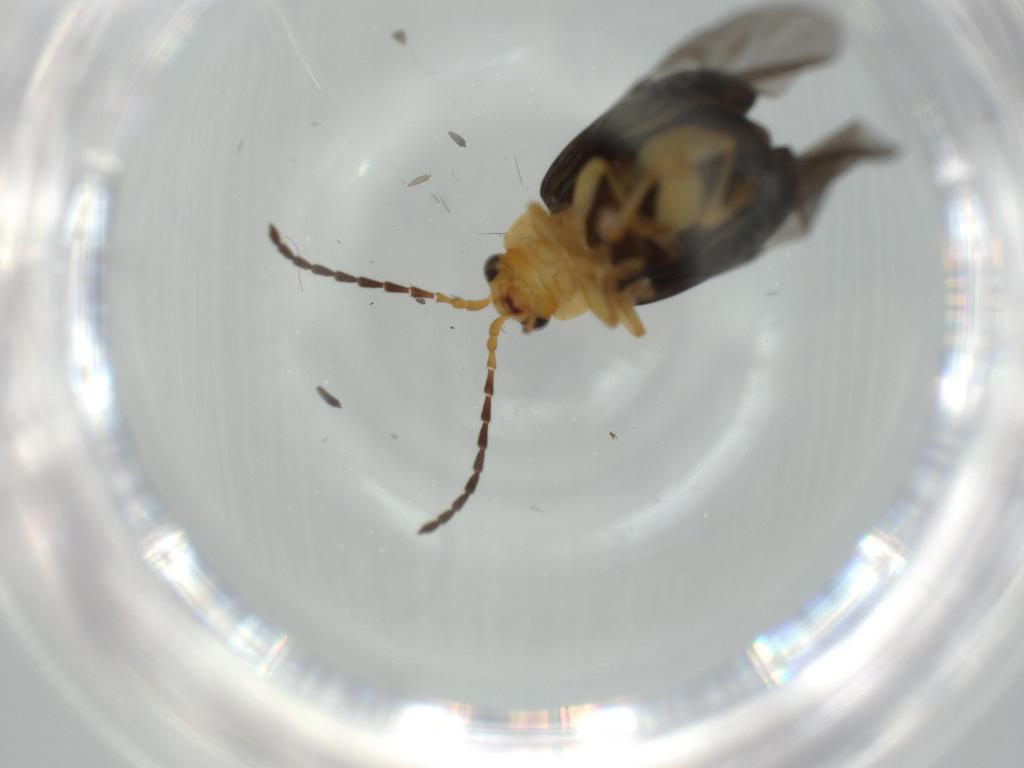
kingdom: Animalia
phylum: Arthropoda
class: Insecta
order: Coleoptera
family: Chrysomelidae
